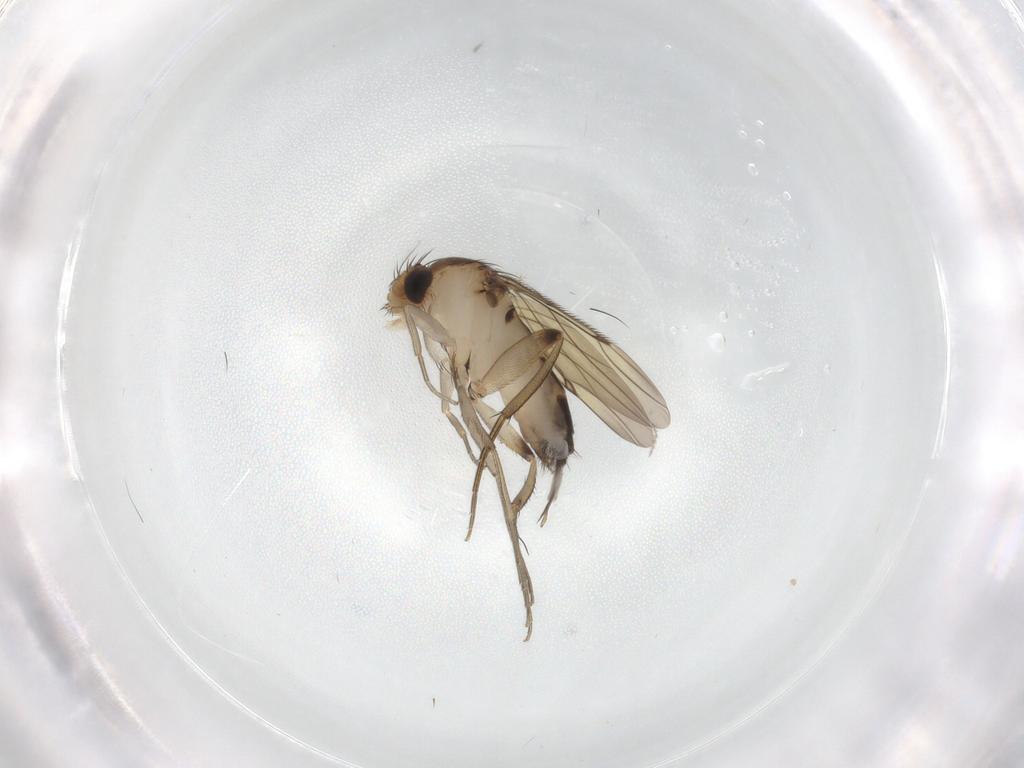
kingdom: Animalia
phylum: Arthropoda
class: Insecta
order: Diptera
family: Phoridae
